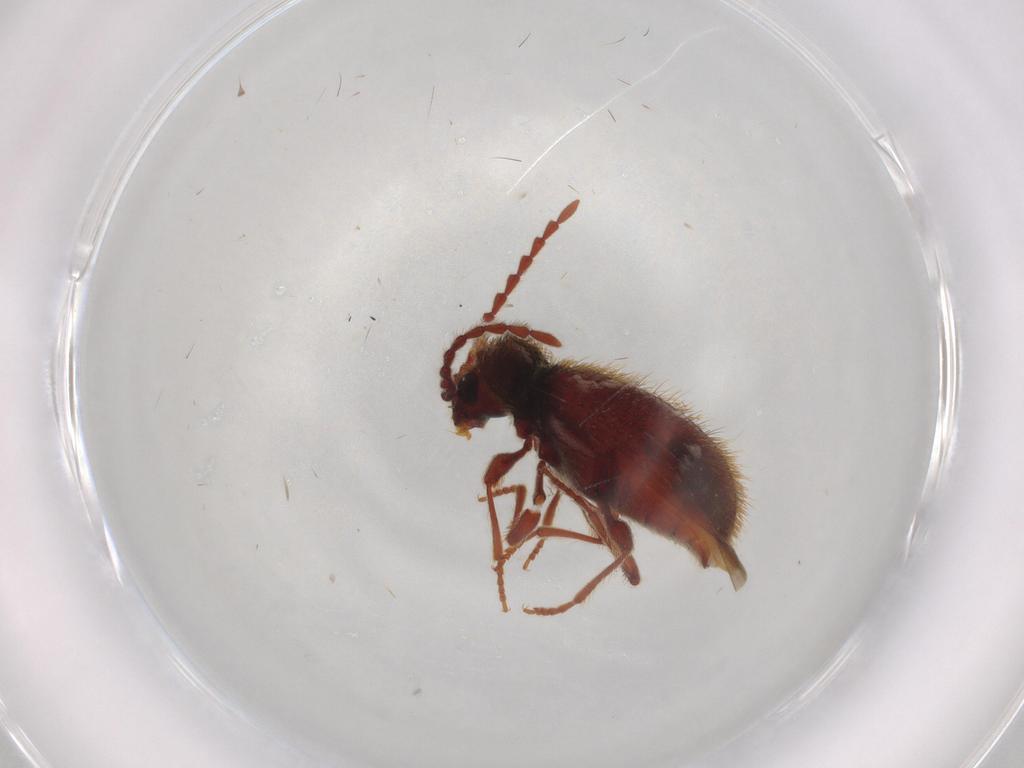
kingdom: Animalia
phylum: Arthropoda
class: Insecta
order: Coleoptera
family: Ptinidae
